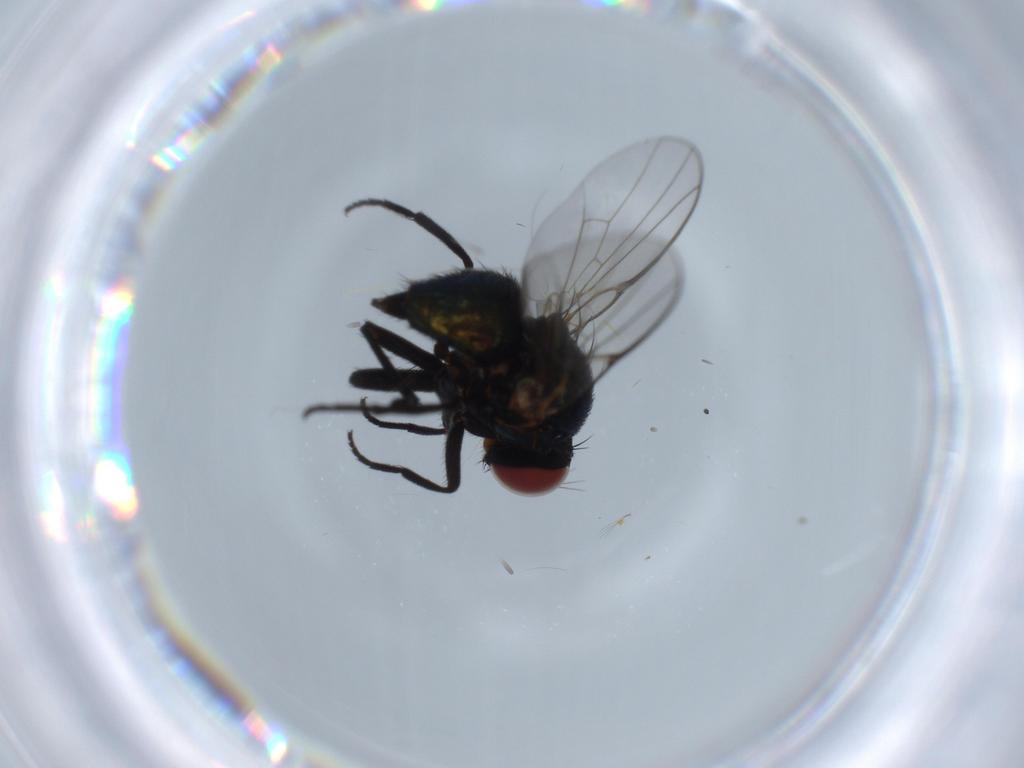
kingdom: Animalia
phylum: Arthropoda
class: Insecta
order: Diptera
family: Agromyzidae
